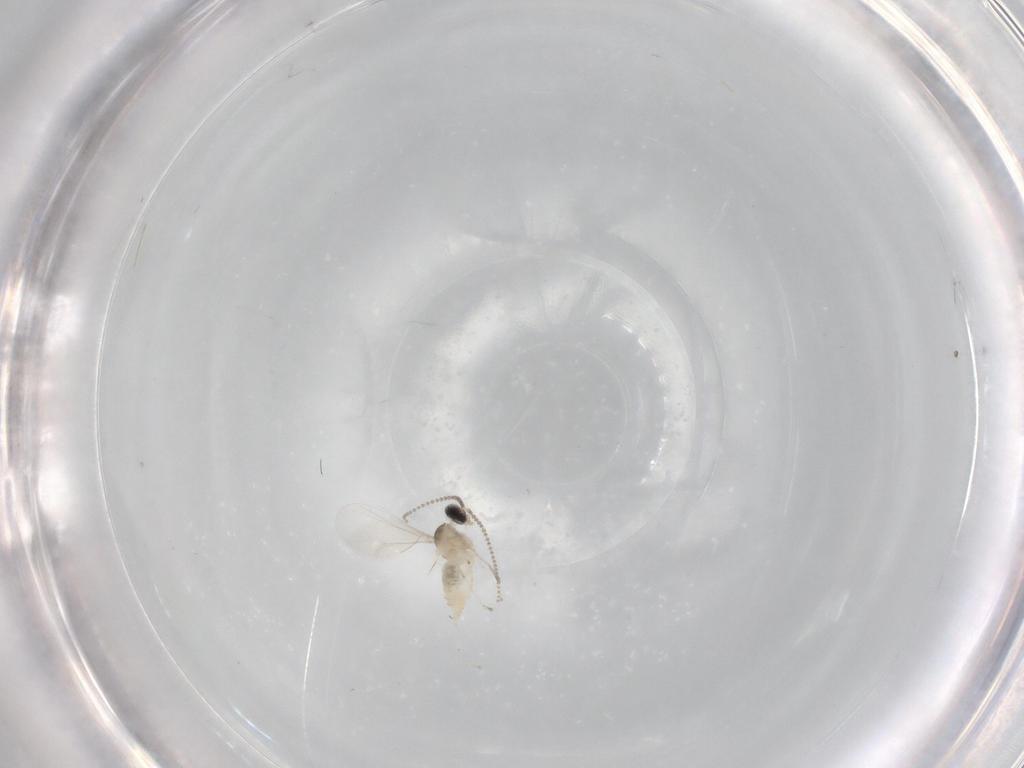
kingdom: Animalia
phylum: Arthropoda
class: Insecta
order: Diptera
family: Cecidomyiidae
